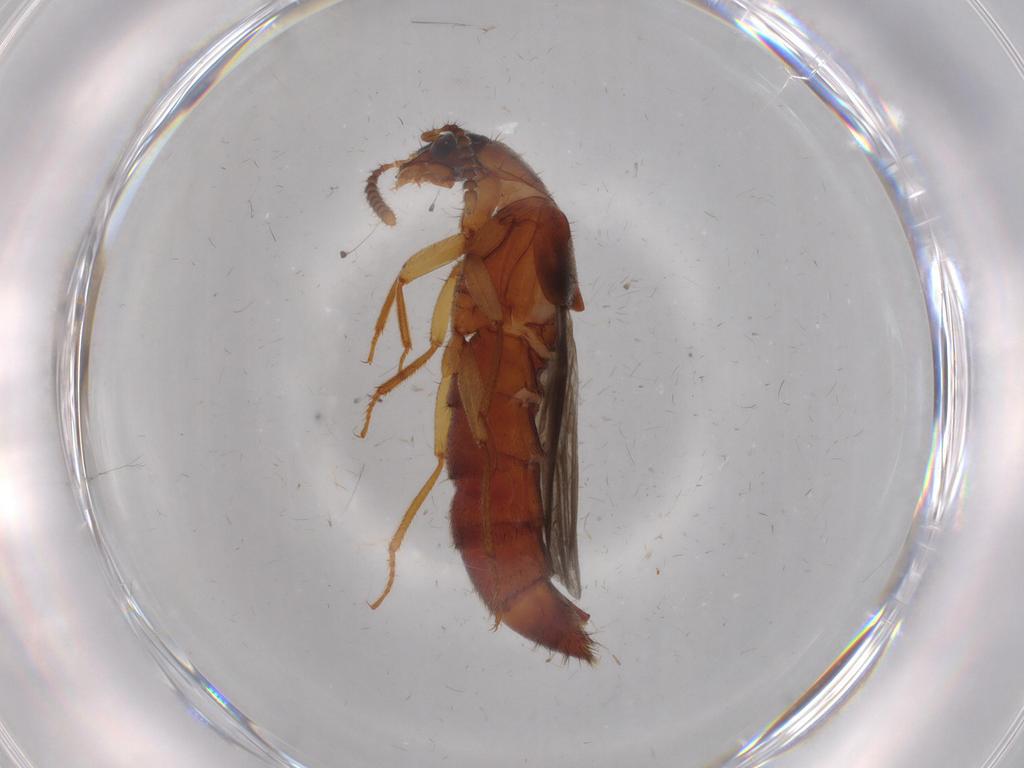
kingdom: Animalia
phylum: Arthropoda
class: Insecta
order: Coleoptera
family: Staphylinidae
